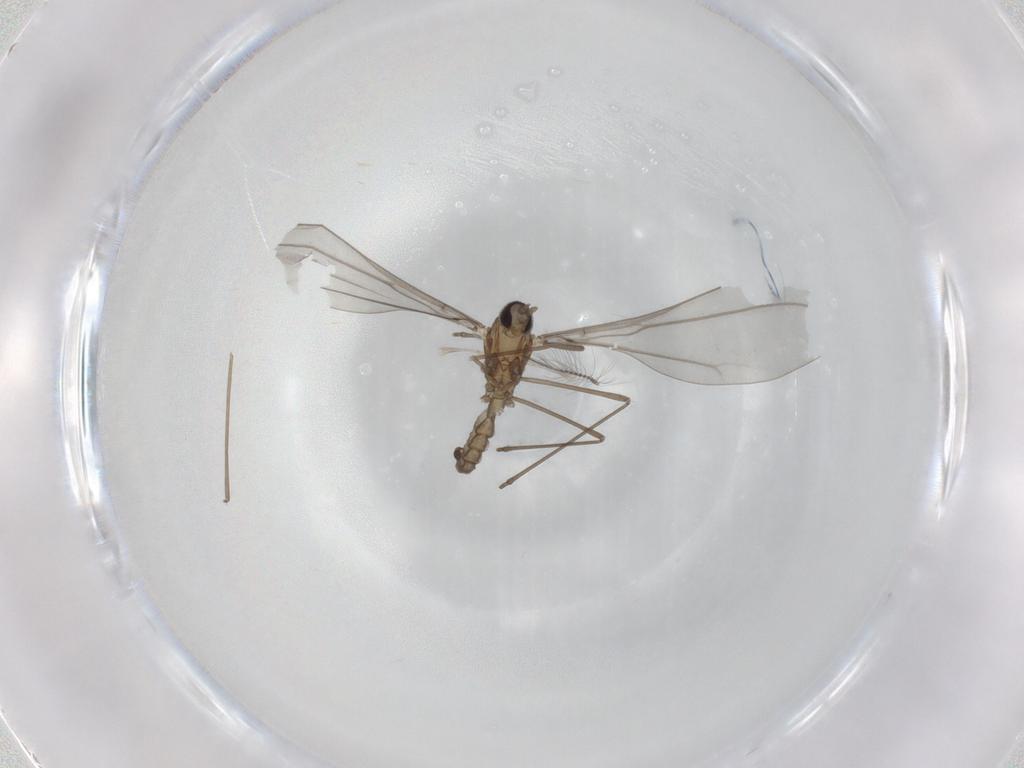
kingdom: Animalia
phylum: Arthropoda
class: Insecta
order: Diptera
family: Cecidomyiidae
